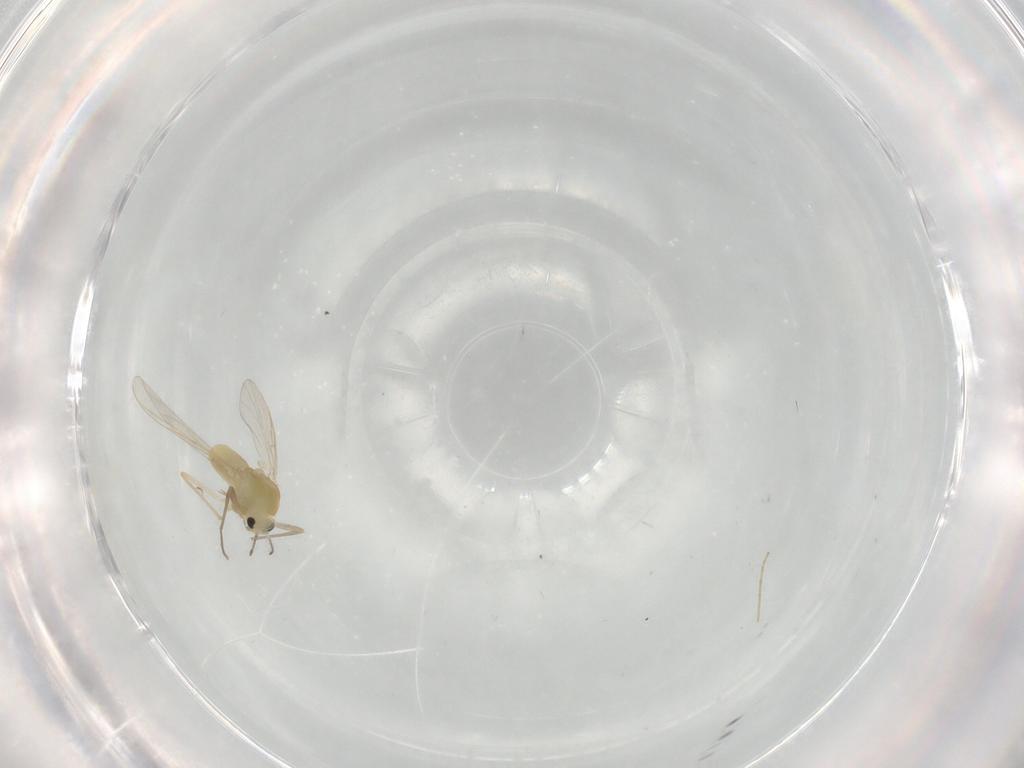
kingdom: Animalia
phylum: Arthropoda
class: Insecta
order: Diptera
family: Chironomidae
